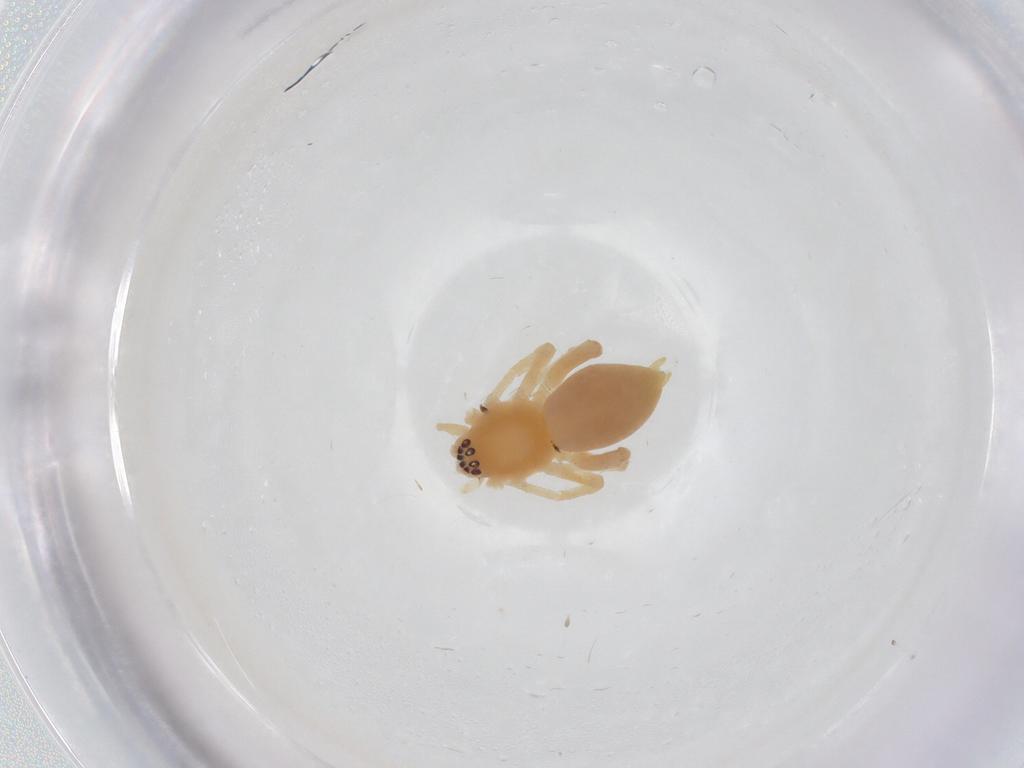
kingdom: Animalia
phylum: Arthropoda
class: Arachnida
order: Araneae
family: Anyphaenidae
